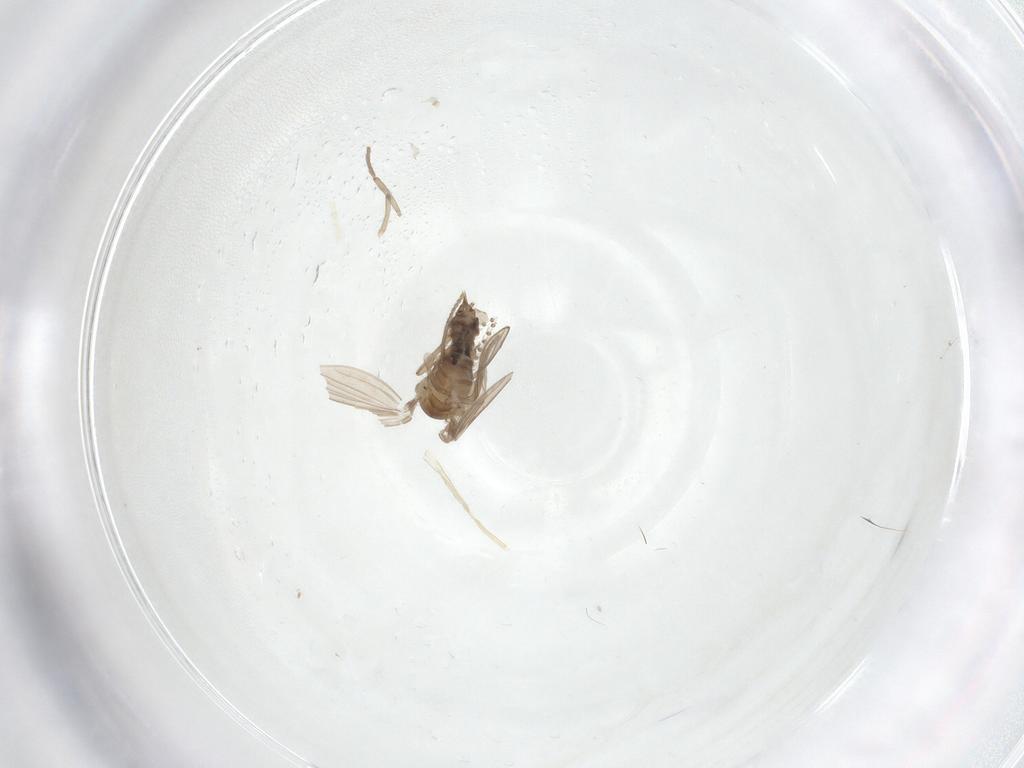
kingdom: Animalia
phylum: Arthropoda
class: Insecta
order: Diptera
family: Psychodidae
